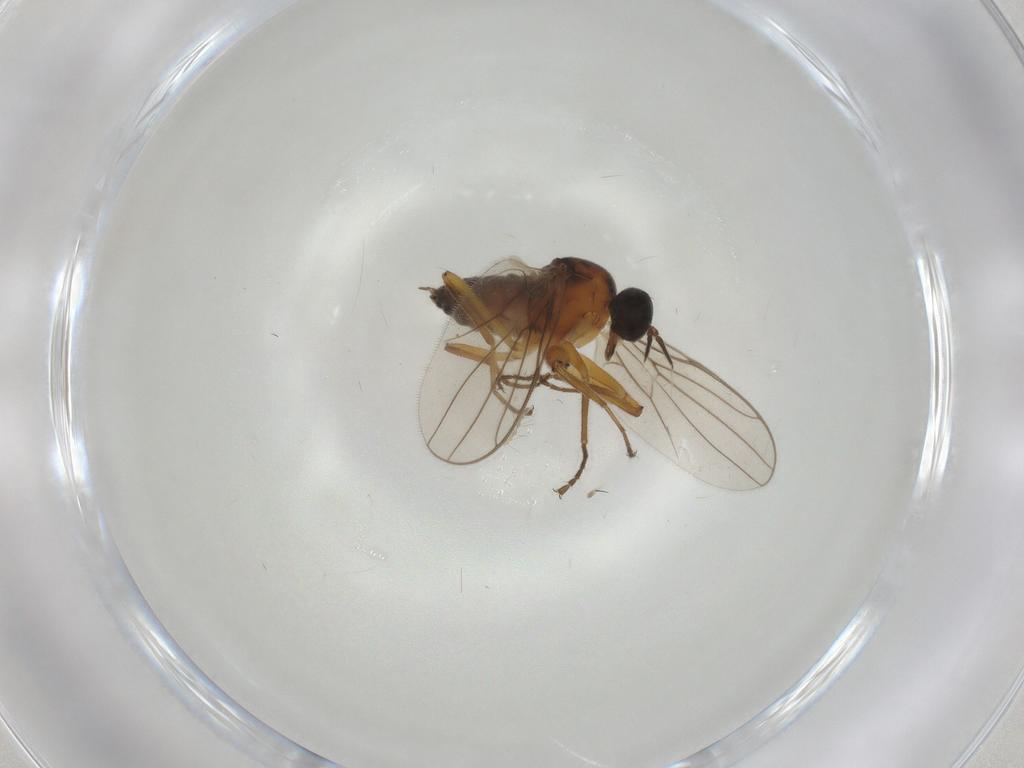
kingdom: Animalia
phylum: Arthropoda
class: Insecta
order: Diptera
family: Hybotidae
